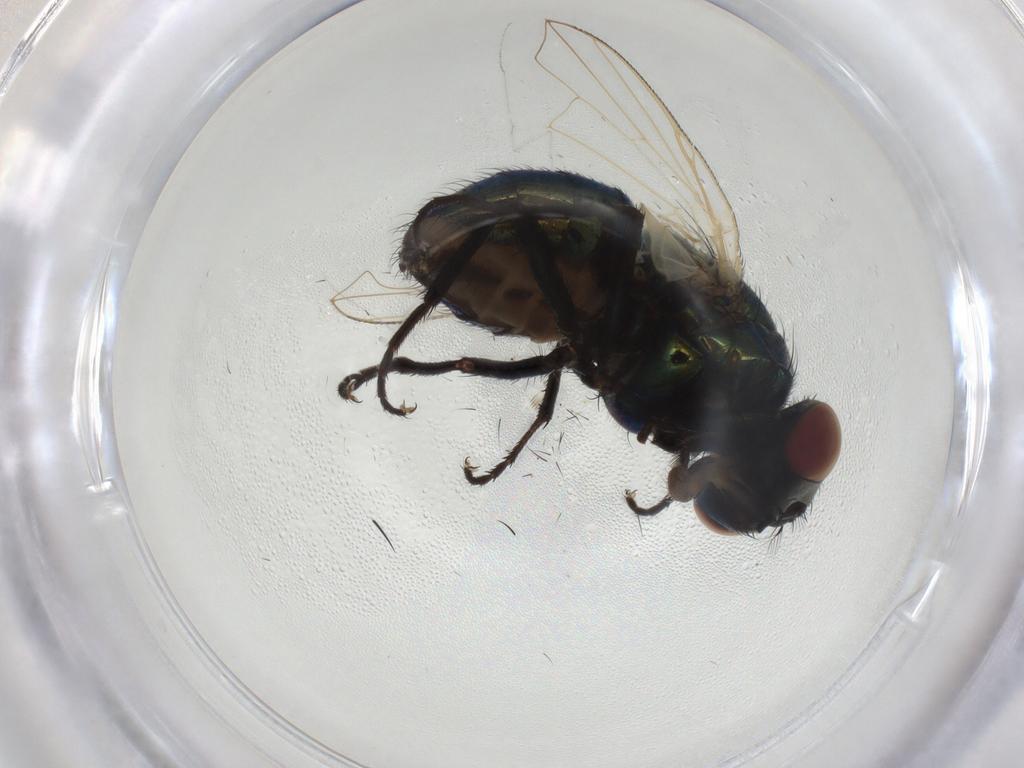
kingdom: Animalia
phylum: Arthropoda
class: Insecta
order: Diptera
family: Muscidae
